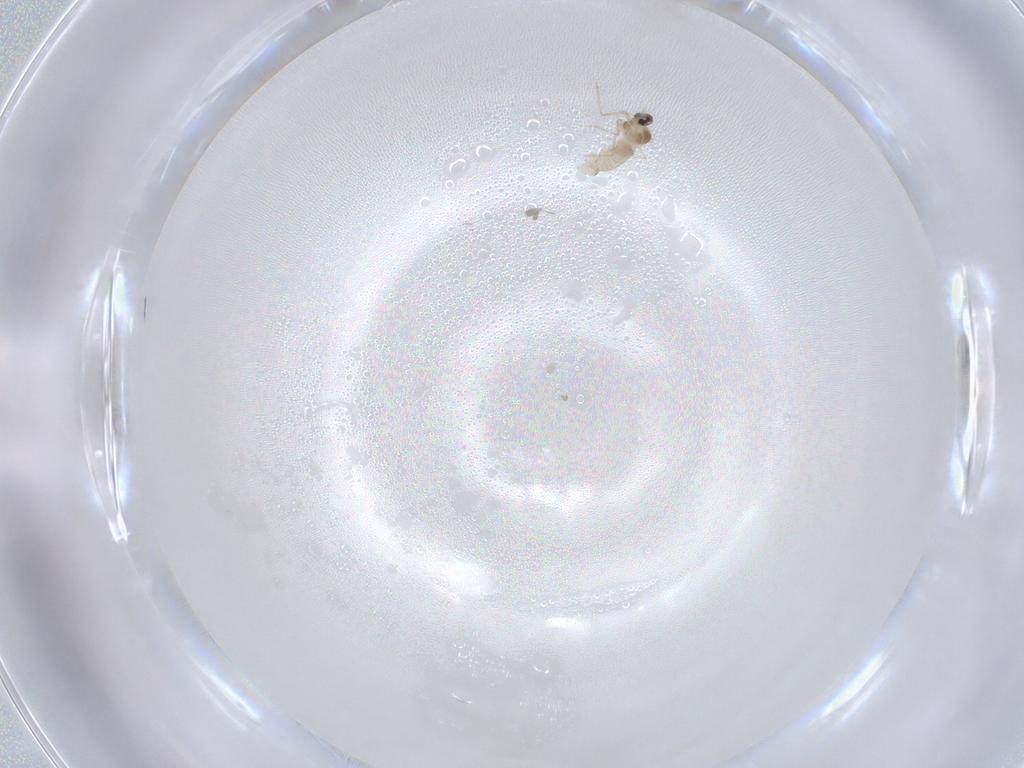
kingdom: Animalia
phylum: Arthropoda
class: Insecta
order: Diptera
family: Cecidomyiidae
